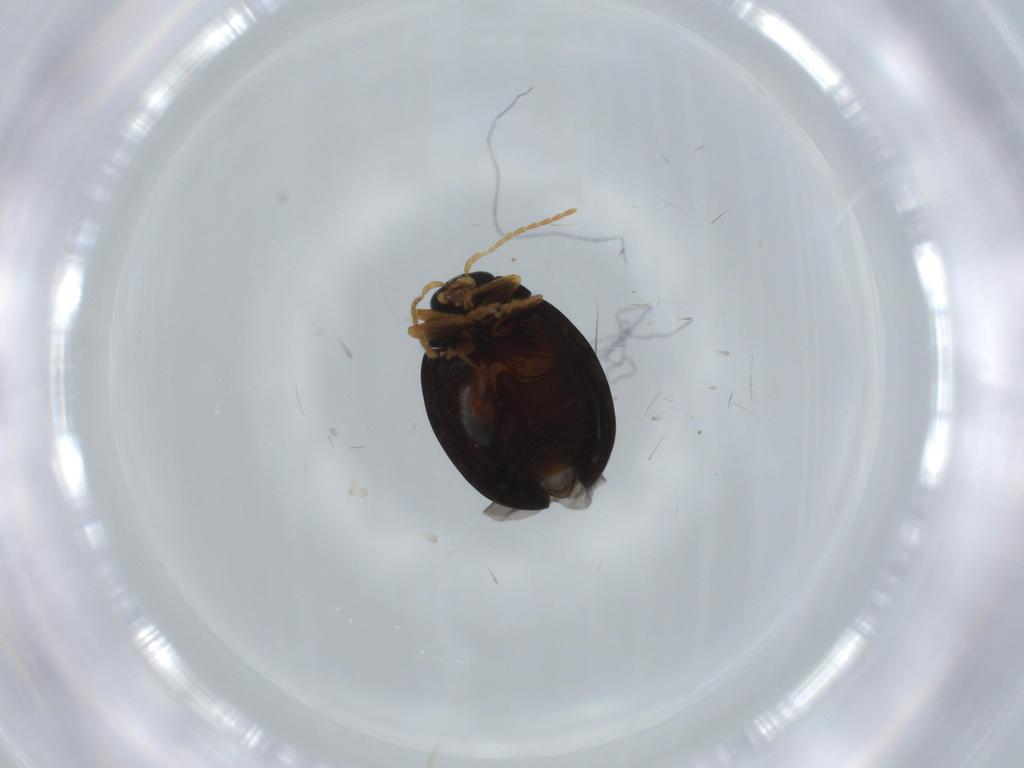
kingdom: Animalia
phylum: Arthropoda
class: Insecta
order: Coleoptera
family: Chrysomelidae
